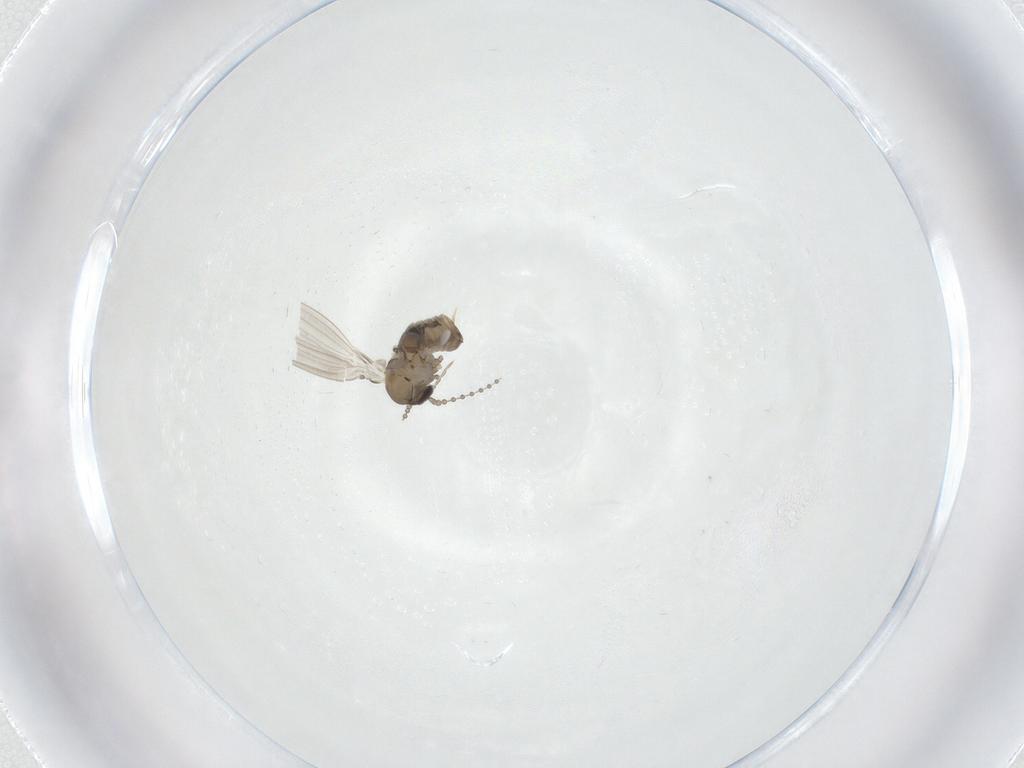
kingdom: Animalia
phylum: Arthropoda
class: Insecta
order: Diptera
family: Psychodidae
